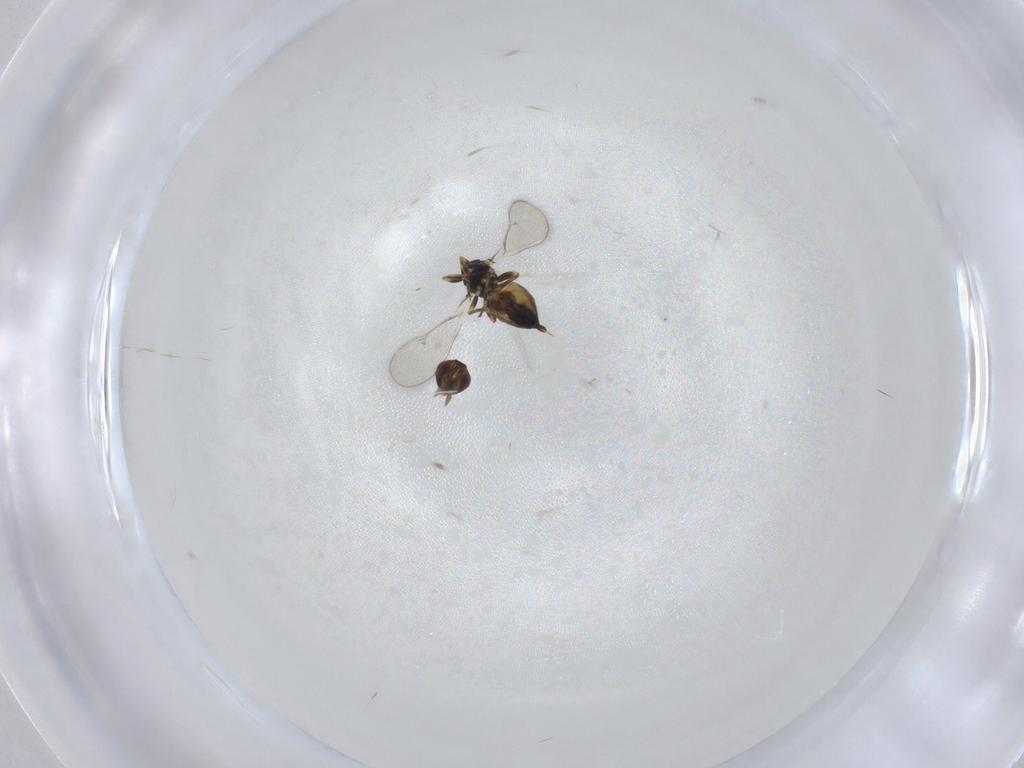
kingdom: Animalia
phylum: Arthropoda
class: Insecta
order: Hymenoptera
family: Eulophidae
